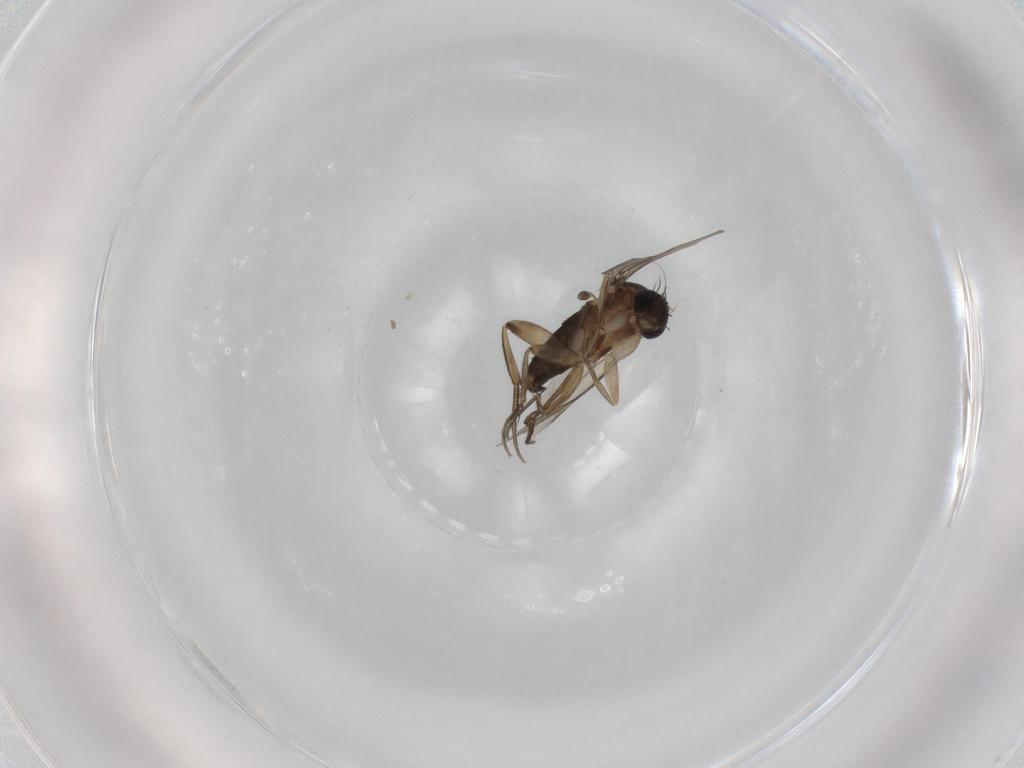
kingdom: Animalia
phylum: Arthropoda
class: Insecta
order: Diptera
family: Phoridae
